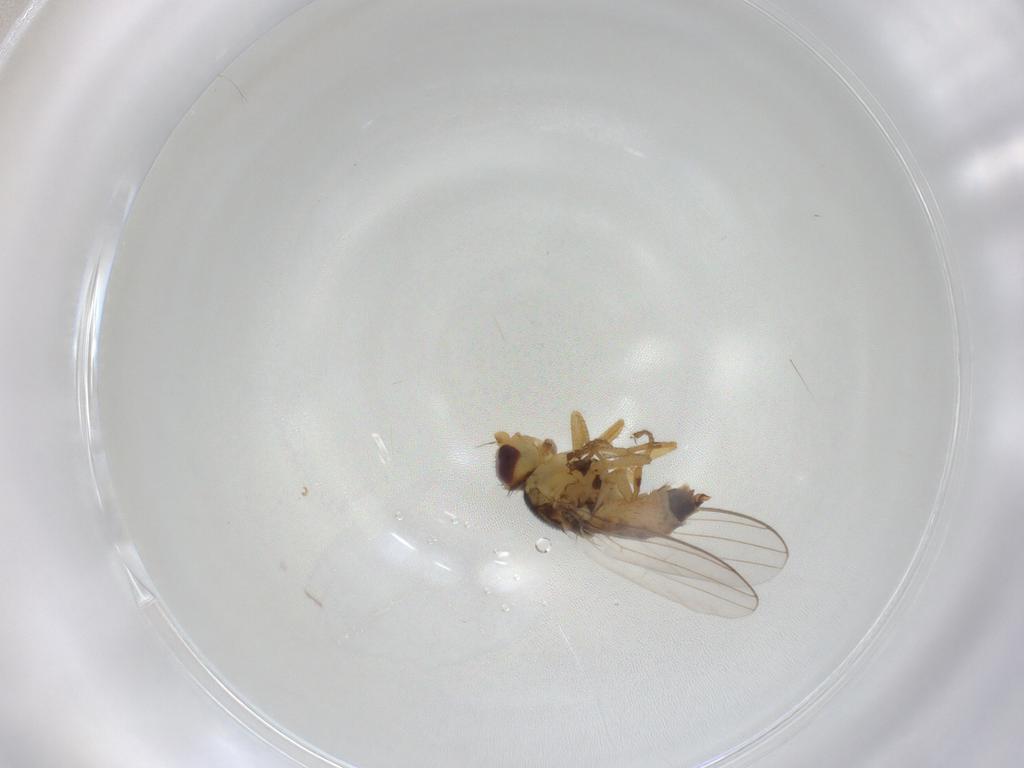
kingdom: Animalia
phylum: Arthropoda
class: Insecta
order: Diptera
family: Chloropidae
